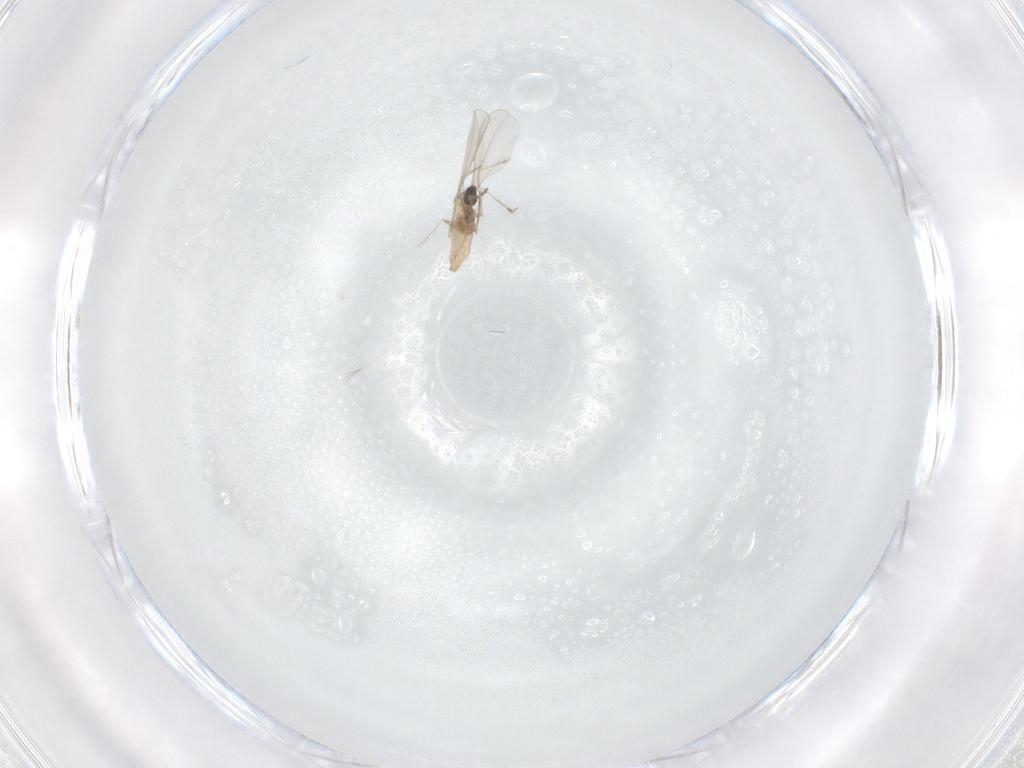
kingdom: Animalia
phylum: Arthropoda
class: Insecta
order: Diptera
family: Cecidomyiidae
